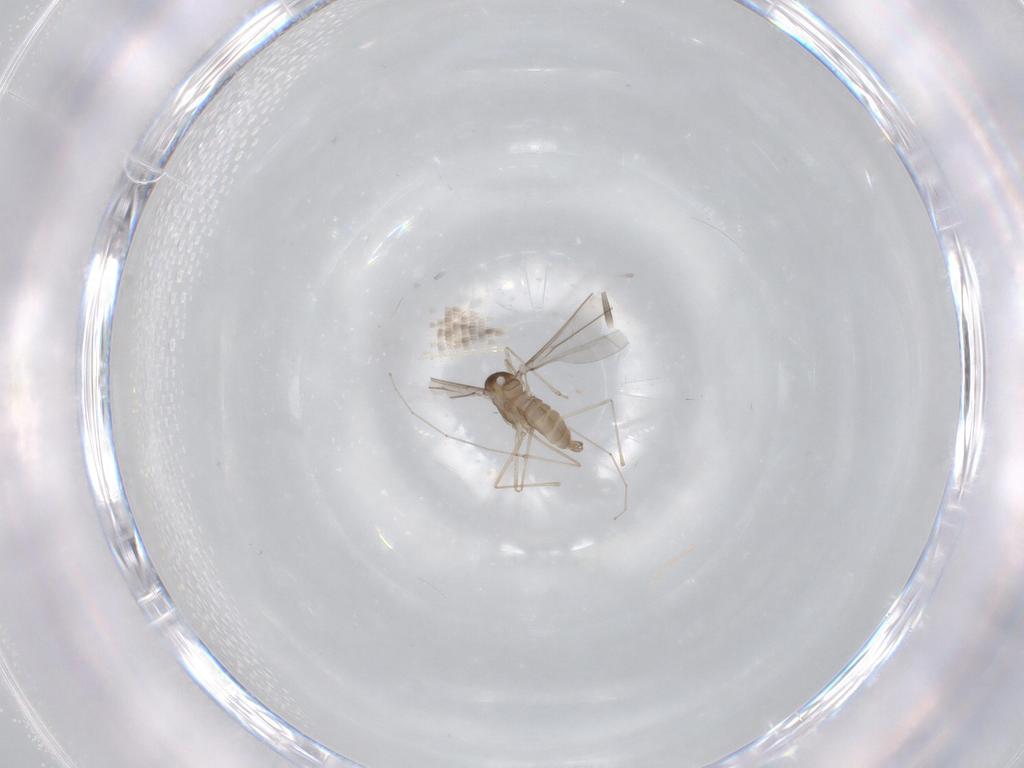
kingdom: Animalia
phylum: Arthropoda
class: Insecta
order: Diptera
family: Cecidomyiidae
